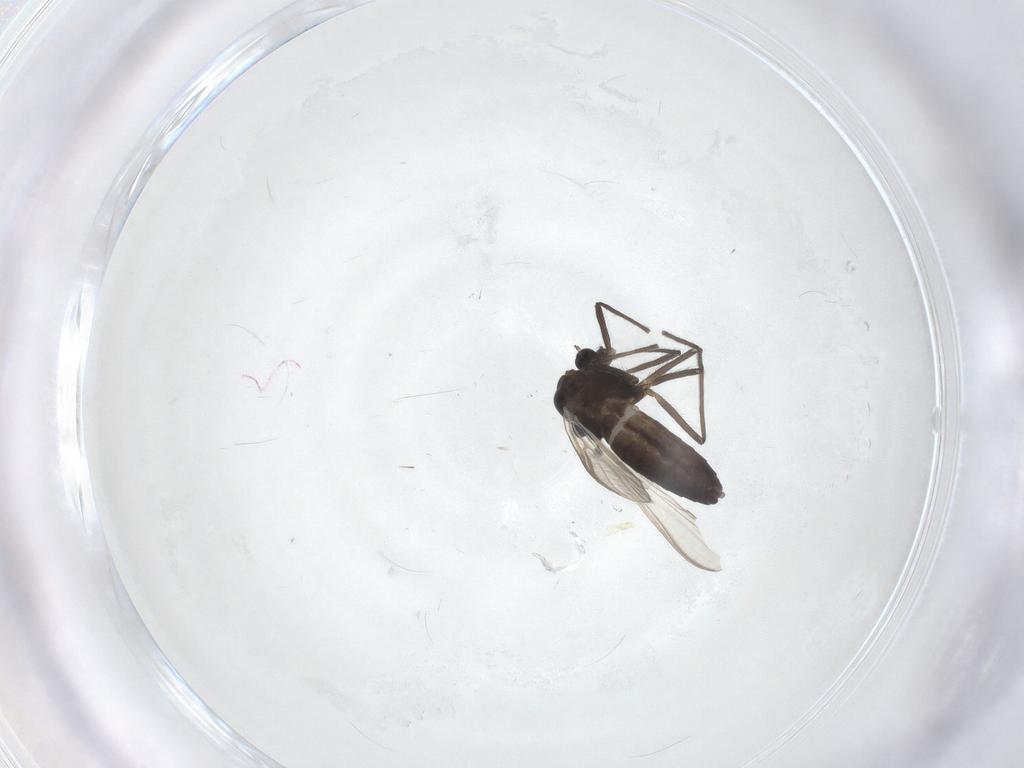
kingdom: Animalia
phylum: Arthropoda
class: Insecta
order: Diptera
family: Chironomidae
